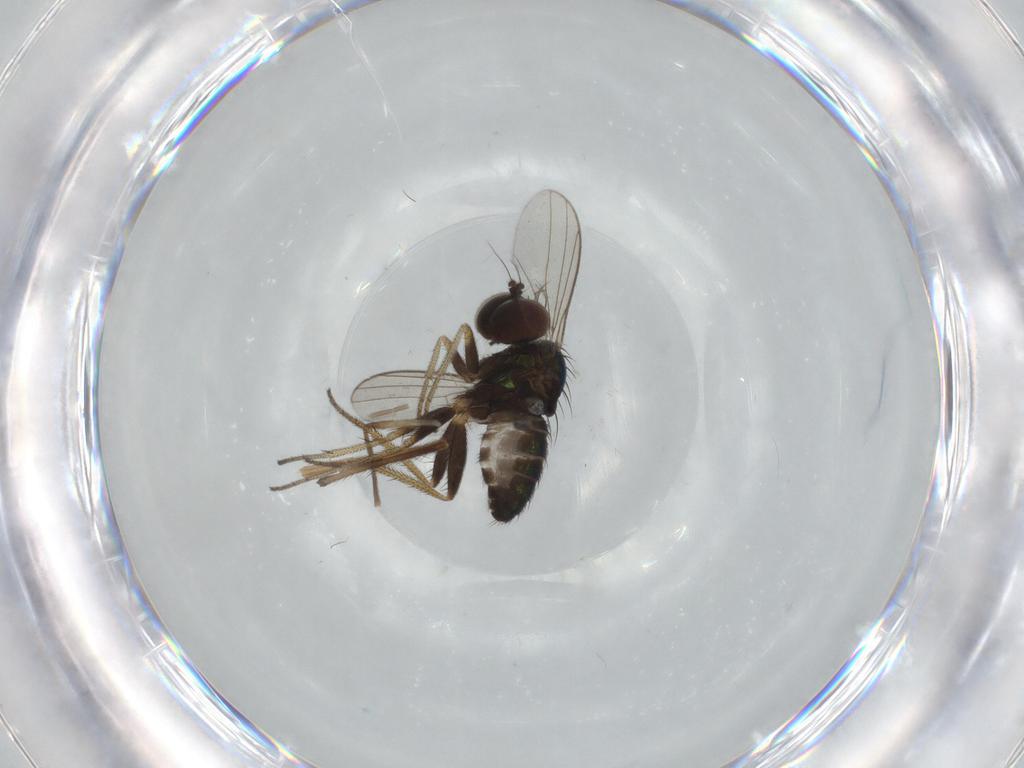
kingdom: Animalia
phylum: Arthropoda
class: Insecta
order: Diptera
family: Chironomidae
